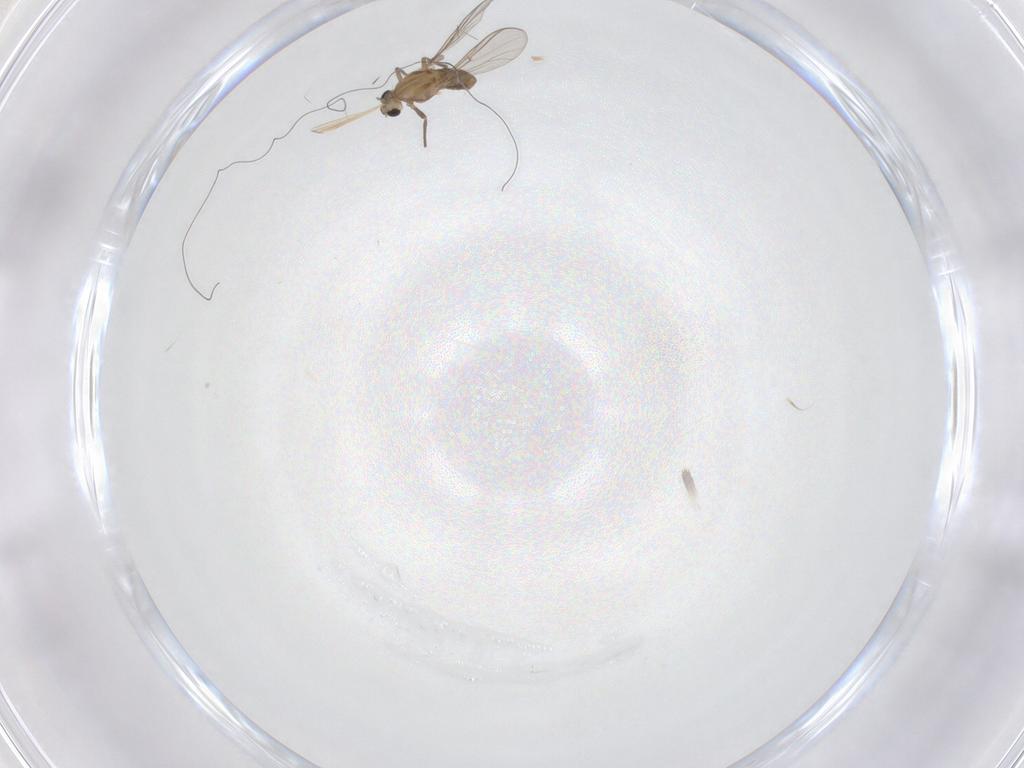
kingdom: Animalia
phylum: Arthropoda
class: Insecta
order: Diptera
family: Chironomidae
